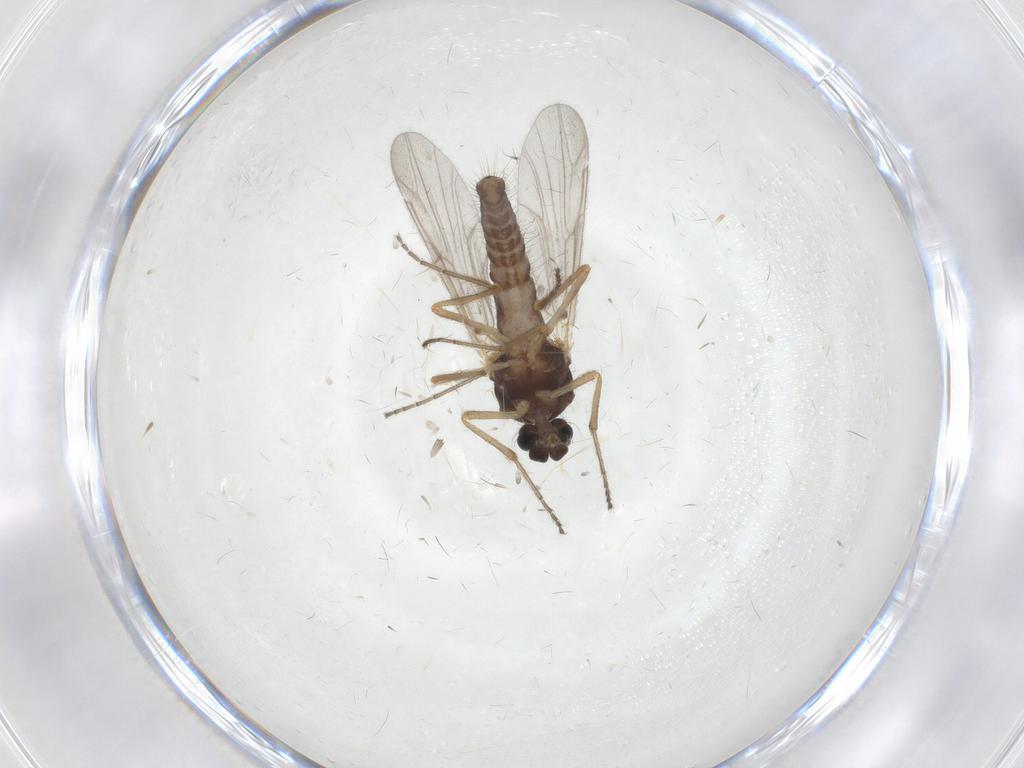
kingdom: Animalia
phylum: Arthropoda
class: Insecta
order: Diptera
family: Ceratopogonidae
